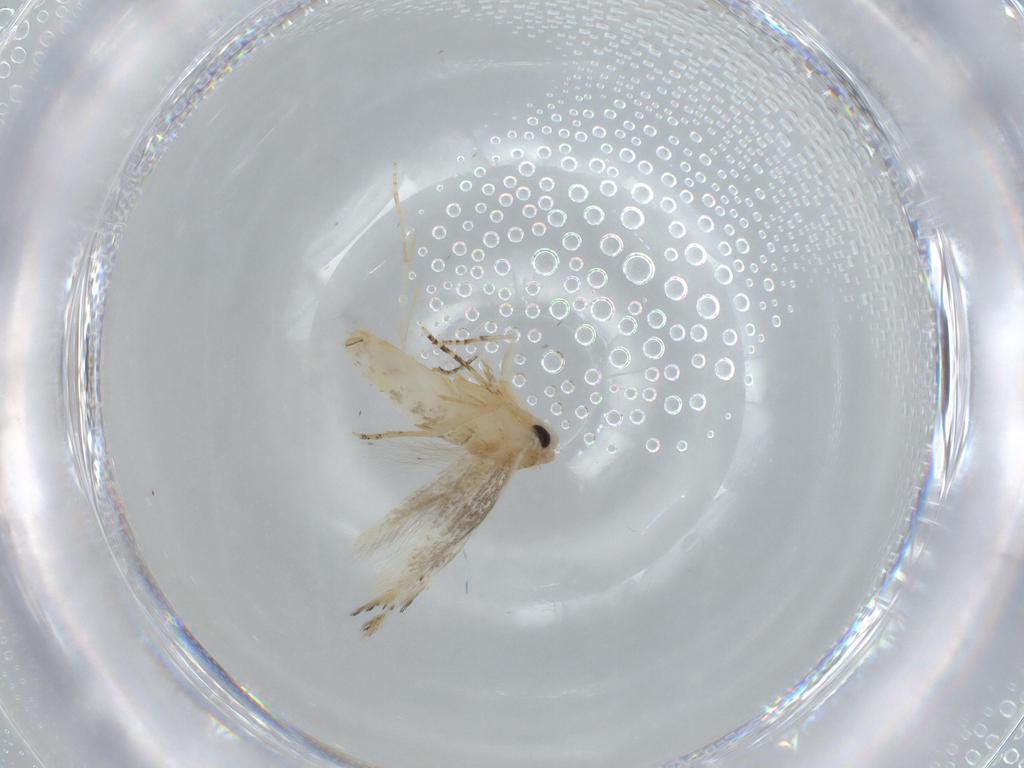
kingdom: Animalia
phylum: Arthropoda
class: Insecta
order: Lepidoptera
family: Bucculatricidae
